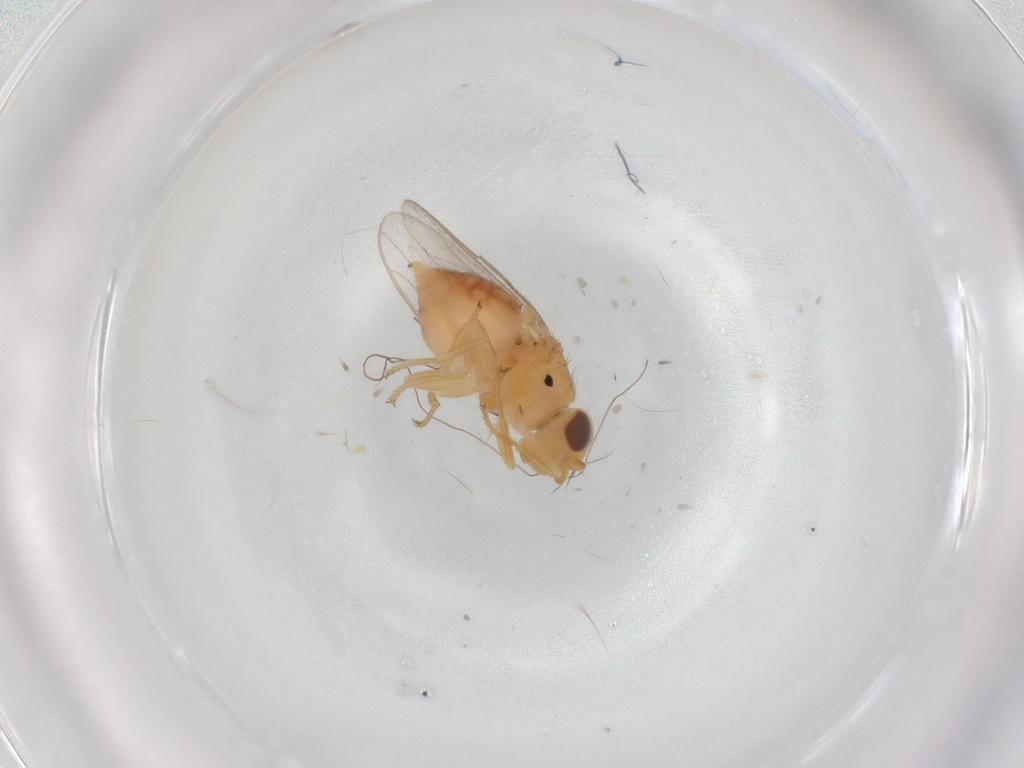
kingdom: Animalia
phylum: Arthropoda
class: Insecta
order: Diptera
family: Chloropidae
